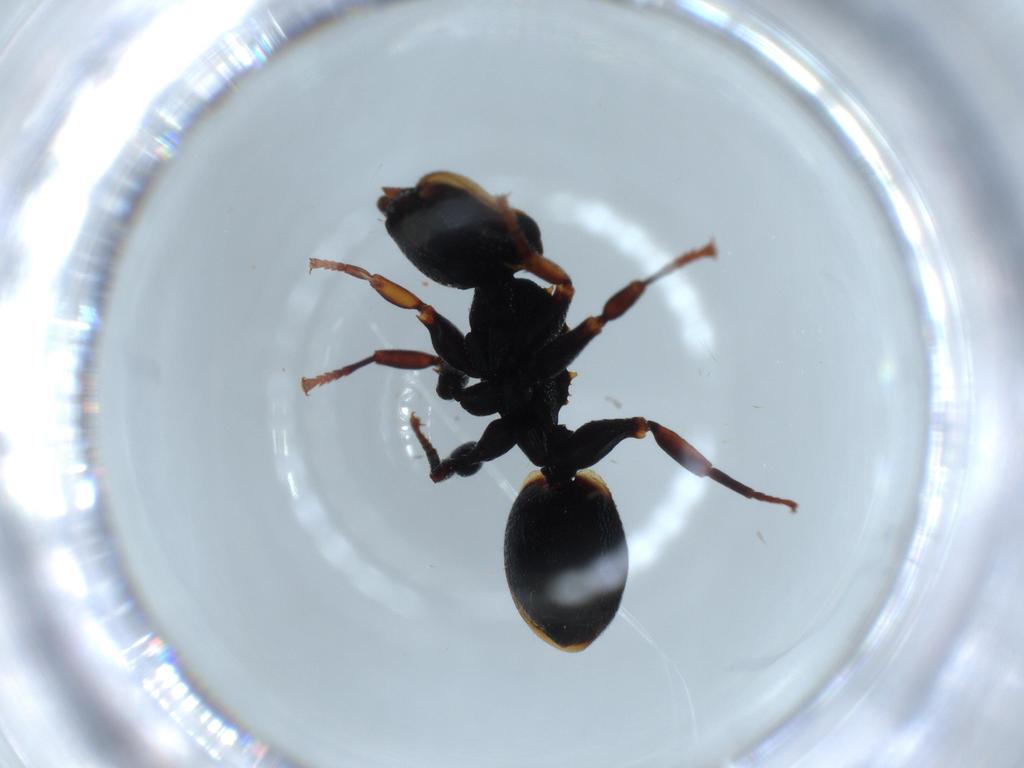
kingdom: Animalia
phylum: Arthropoda
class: Insecta
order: Hymenoptera
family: Formicidae
